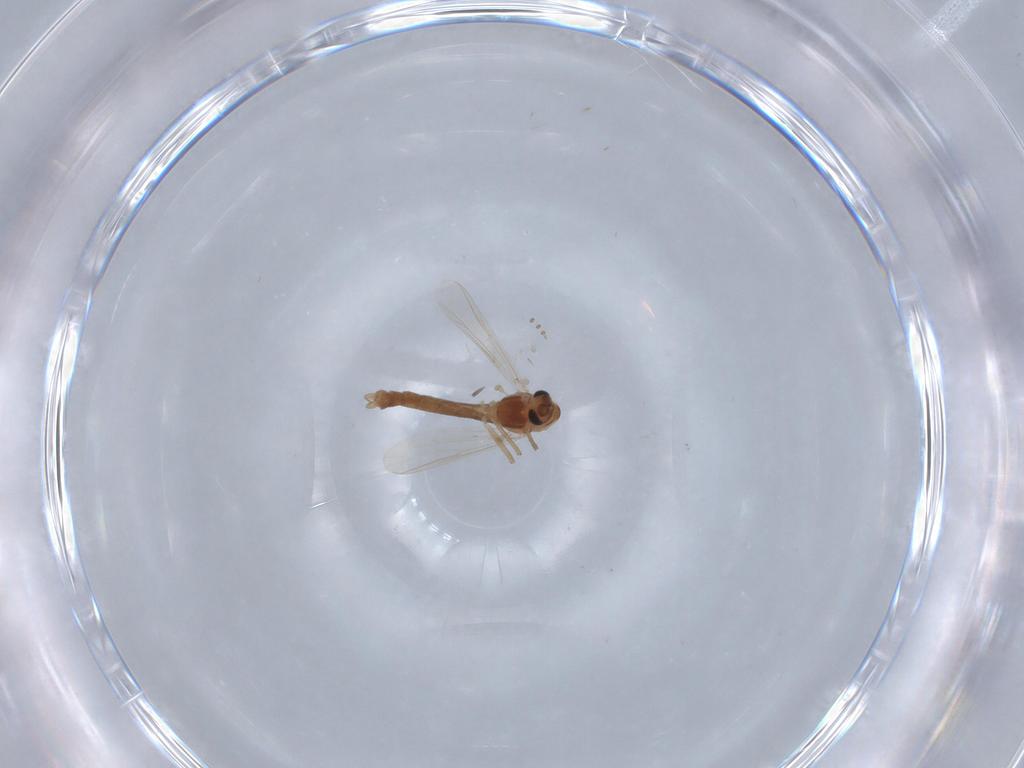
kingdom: Animalia
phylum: Arthropoda
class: Insecta
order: Diptera
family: Chironomidae
